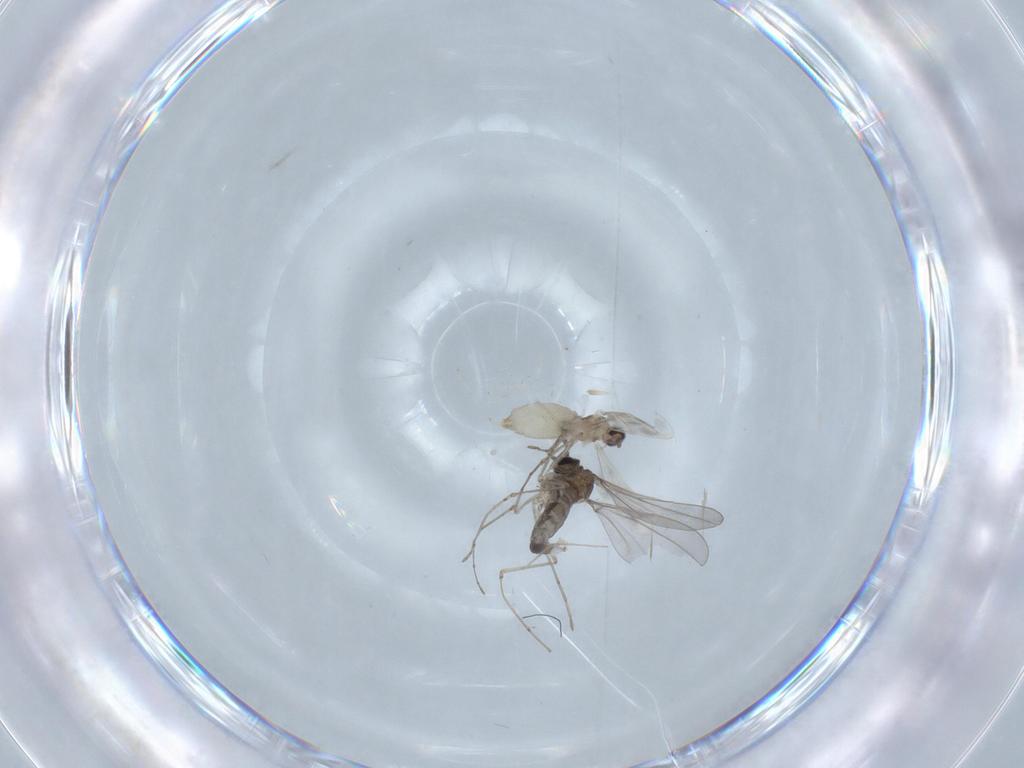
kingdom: Animalia
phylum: Arthropoda
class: Insecta
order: Diptera
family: Cecidomyiidae
